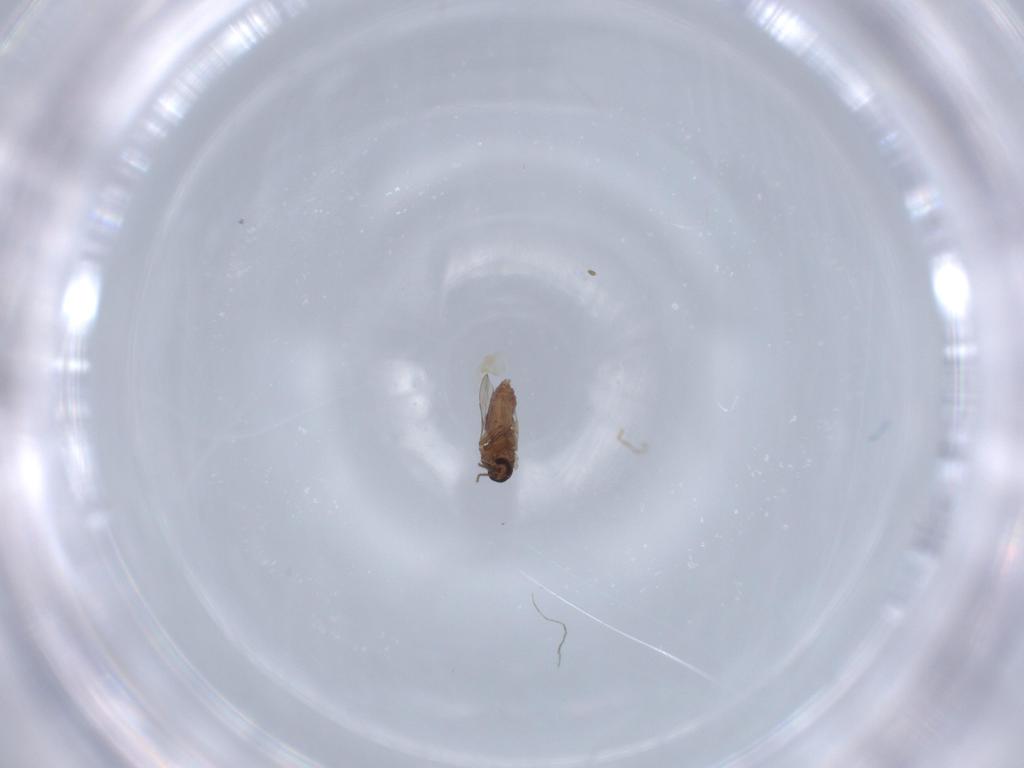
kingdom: Animalia
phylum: Arthropoda
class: Insecta
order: Diptera
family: Ceratopogonidae
